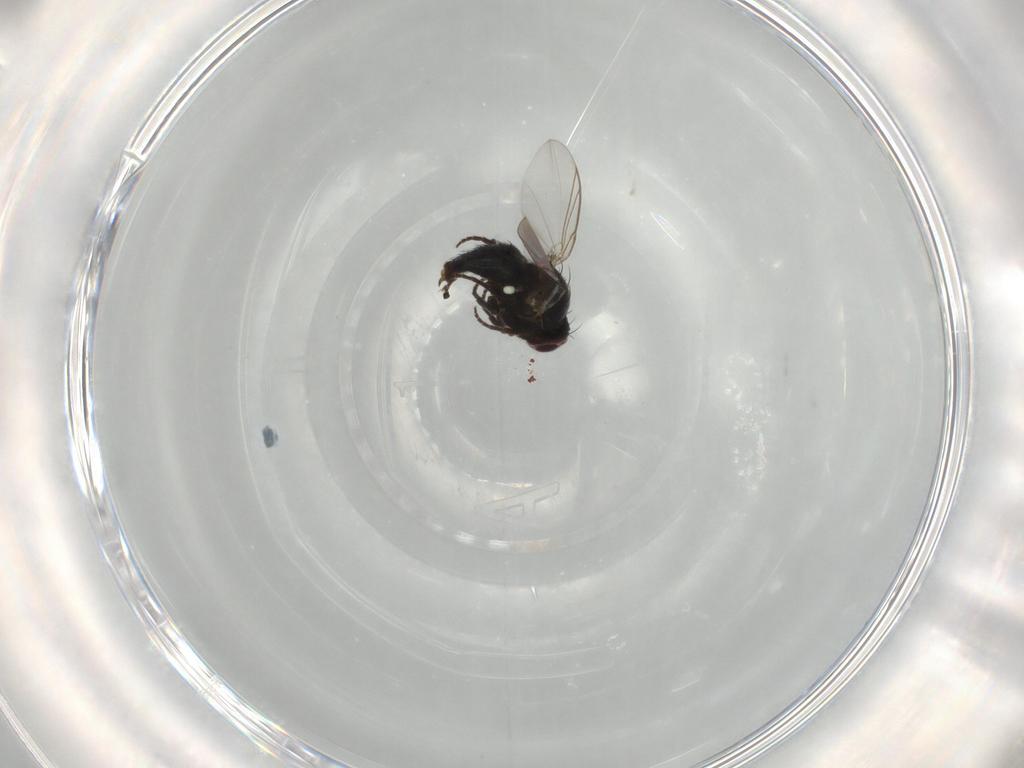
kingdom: Animalia
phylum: Arthropoda
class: Insecta
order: Diptera
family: Agromyzidae
